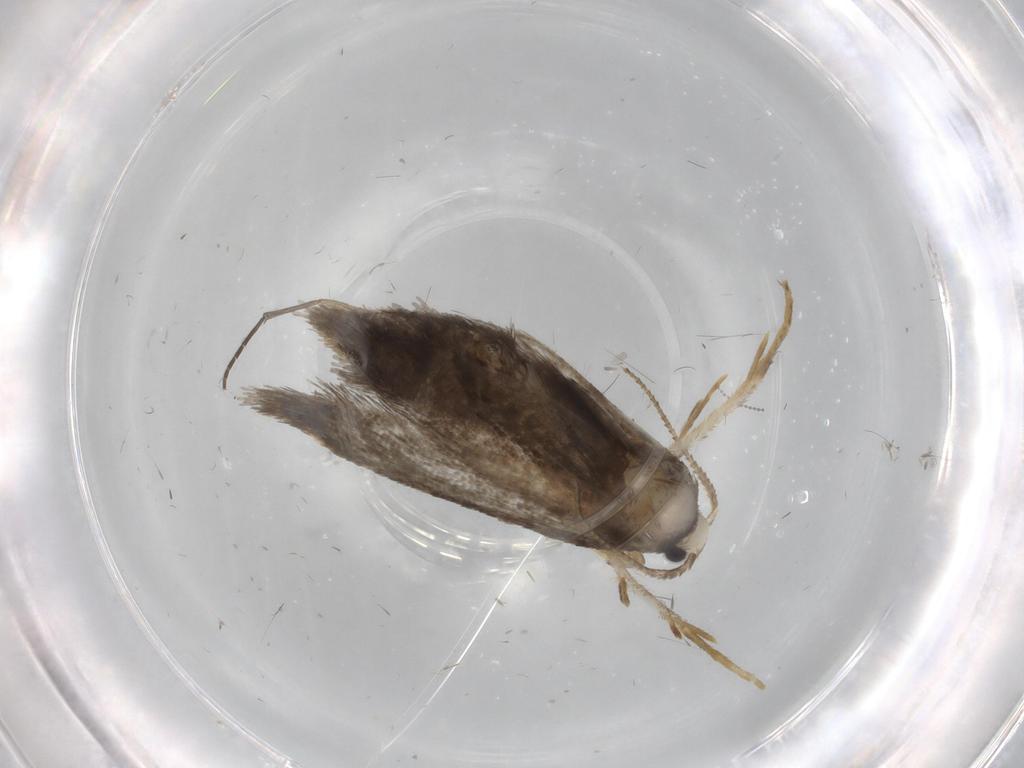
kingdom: Animalia
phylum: Arthropoda
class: Insecta
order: Lepidoptera
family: Psychidae
